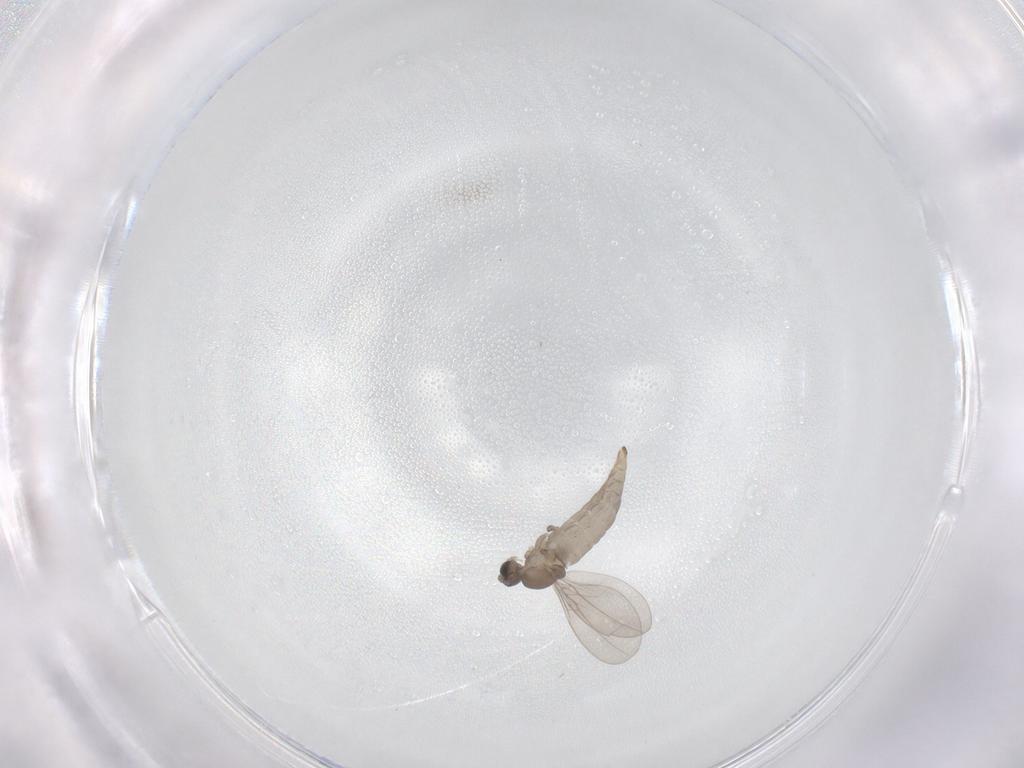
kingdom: Animalia
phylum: Arthropoda
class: Insecta
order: Diptera
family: Cecidomyiidae
